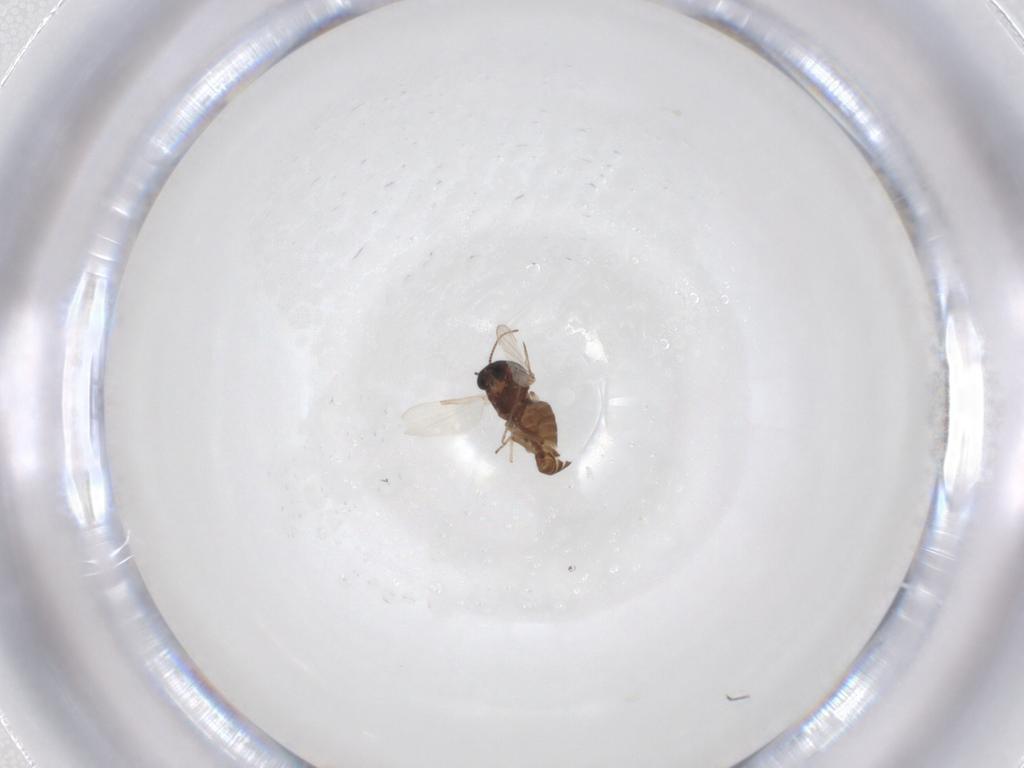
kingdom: Animalia
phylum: Arthropoda
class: Insecta
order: Diptera
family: Ceratopogonidae
